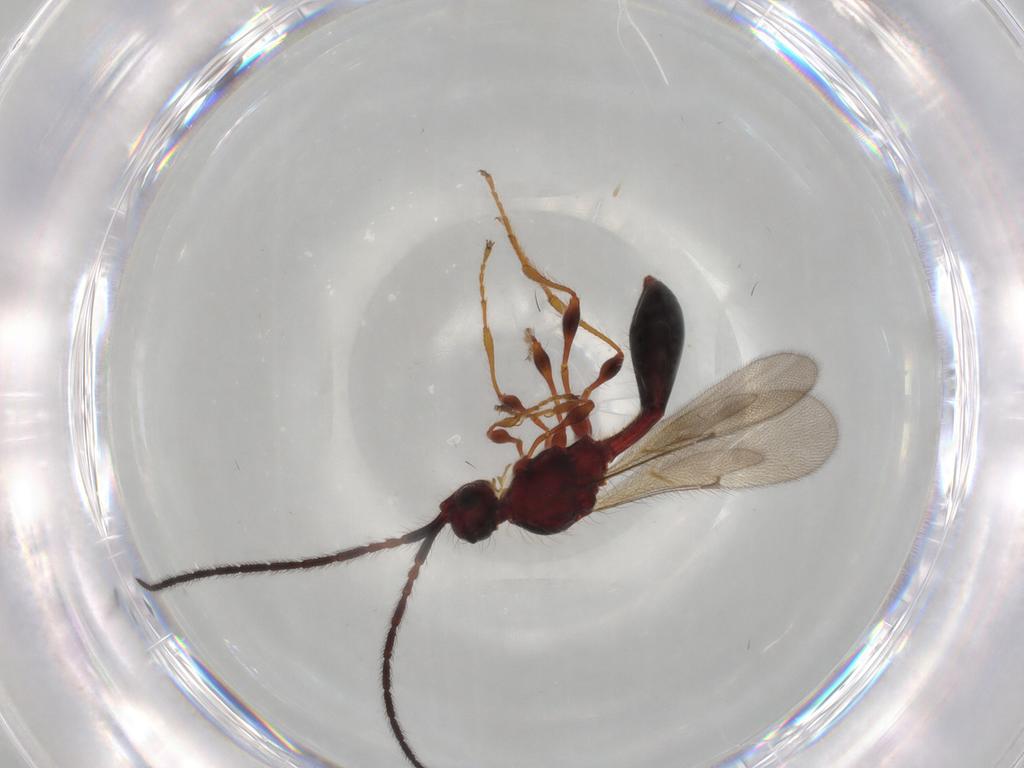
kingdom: Animalia
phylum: Arthropoda
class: Insecta
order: Hymenoptera
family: Diapriidae
